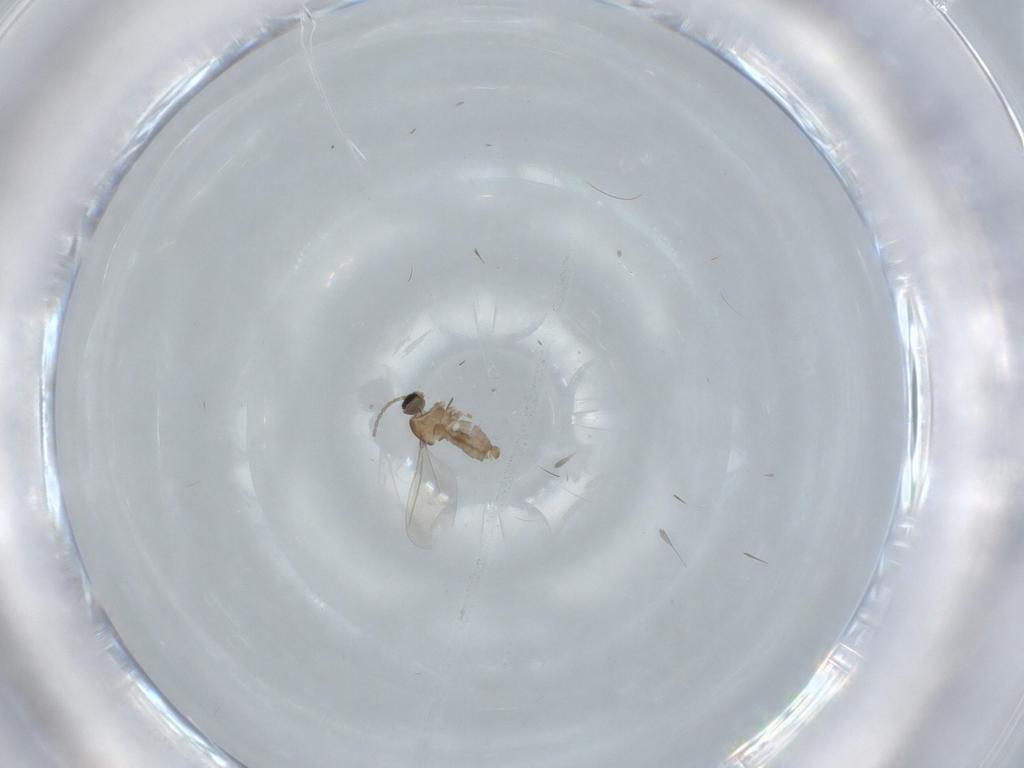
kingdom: Animalia
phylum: Arthropoda
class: Insecta
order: Diptera
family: Cecidomyiidae
